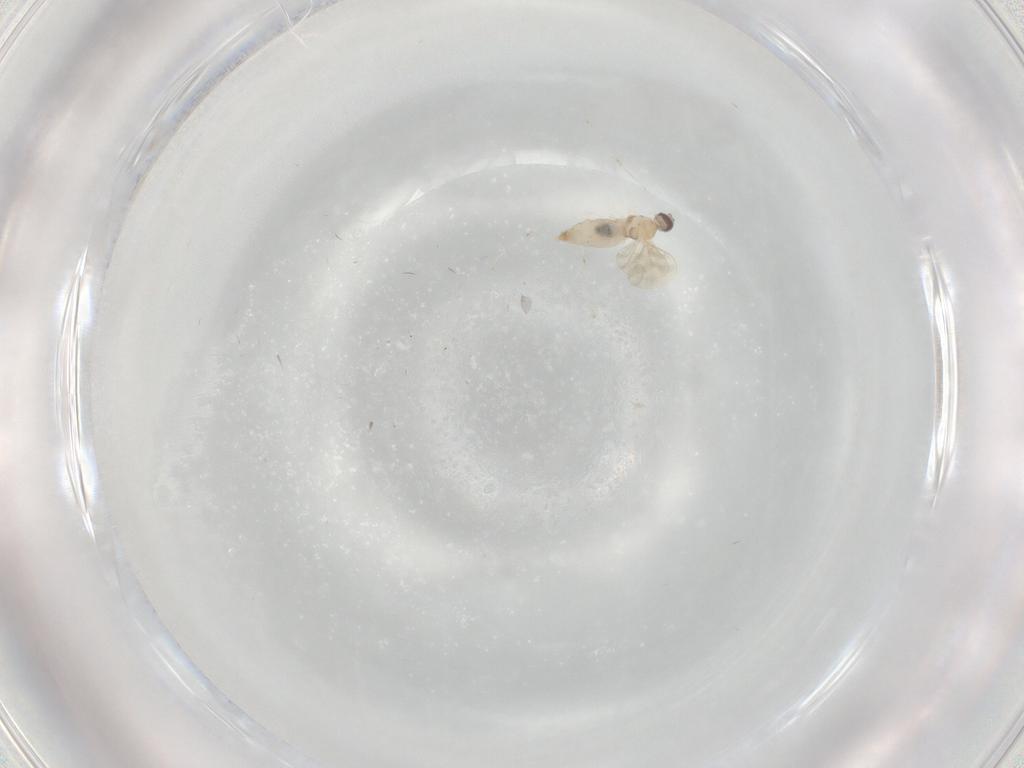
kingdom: Animalia
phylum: Arthropoda
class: Insecta
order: Diptera
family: Cecidomyiidae
